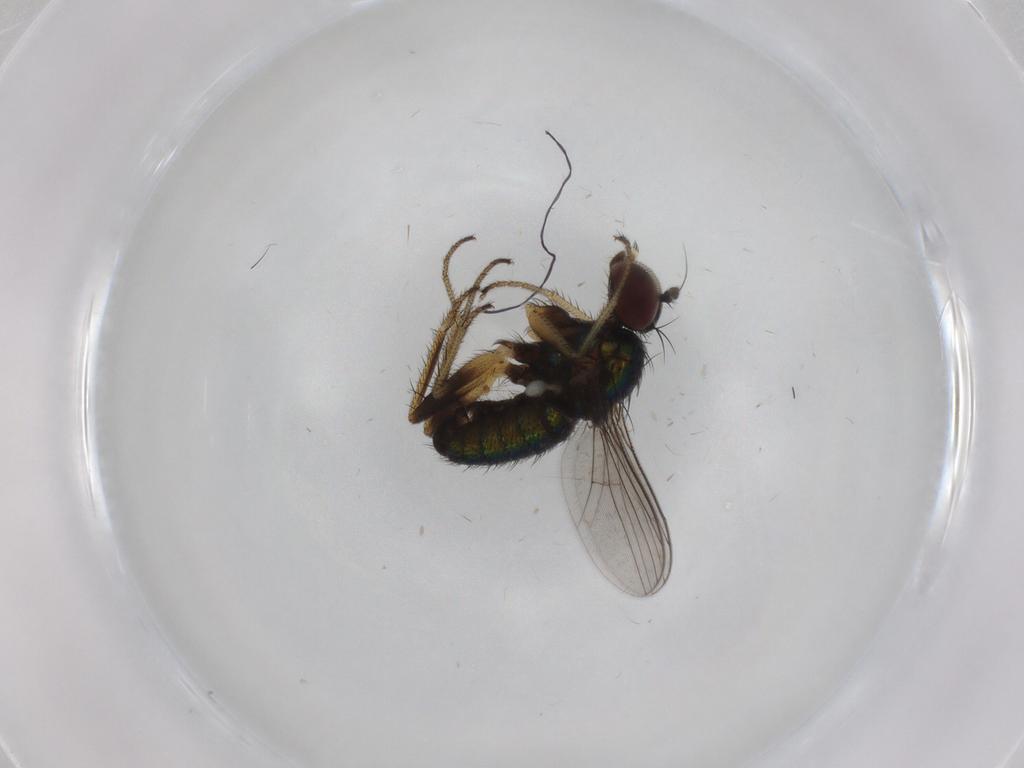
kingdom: Animalia
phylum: Arthropoda
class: Insecta
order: Diptera
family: Dolichopodidae
